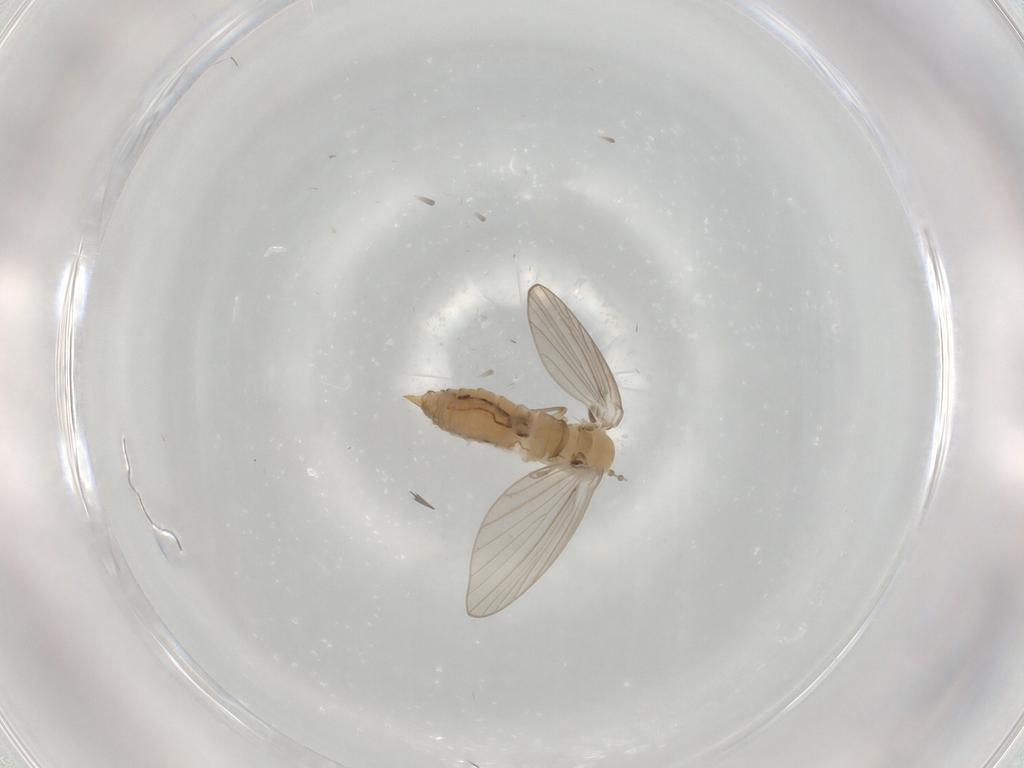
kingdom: Animalia
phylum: Arthropoda
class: Insecta
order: Diptera
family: Psychodidae
